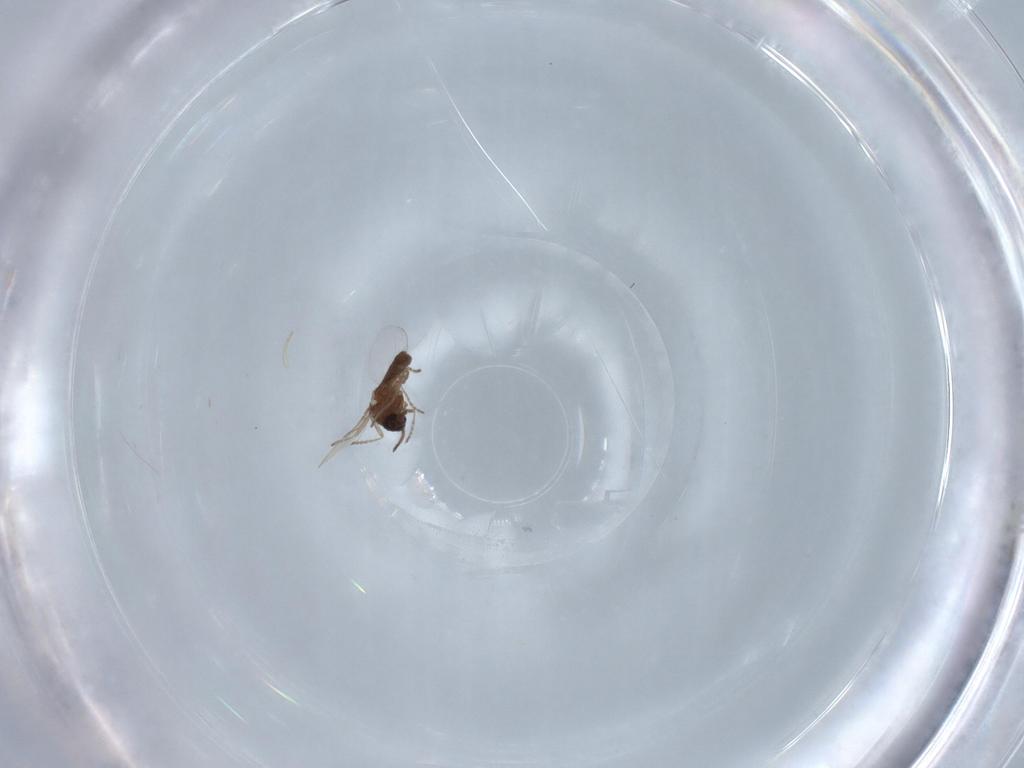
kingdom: Animalia
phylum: Arthropoda
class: Insecta
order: Diptera
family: Ceratopogonidae
